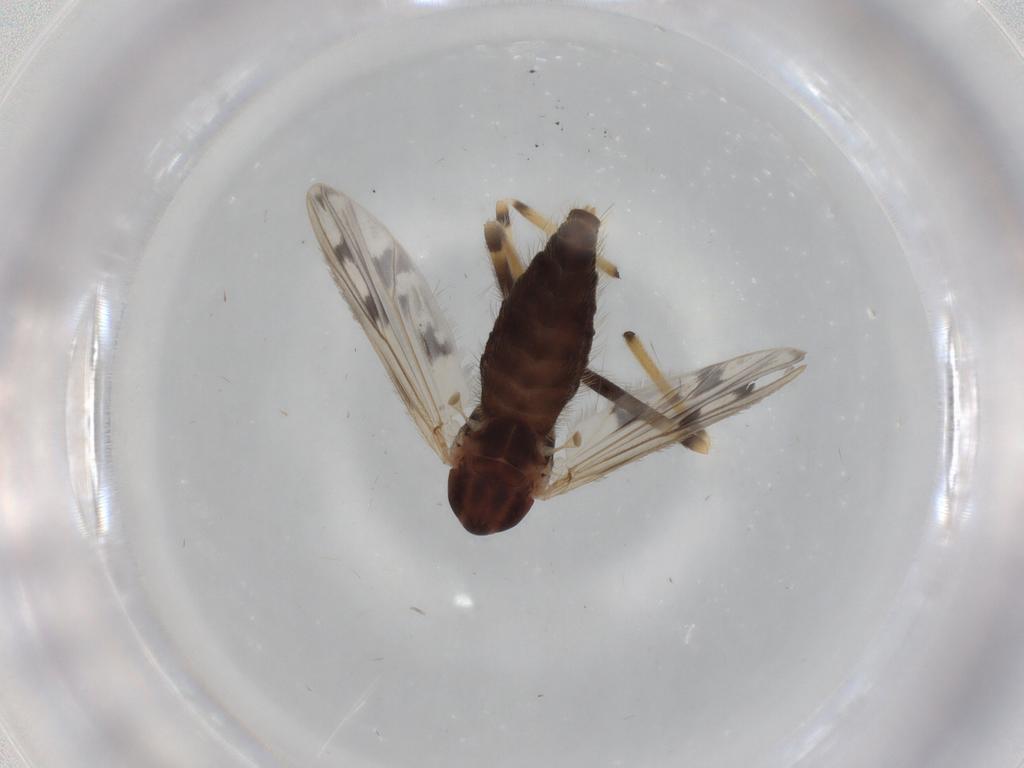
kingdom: Animalia
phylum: Arthropoda
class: Insecta
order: Diptera
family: Chironomidae
